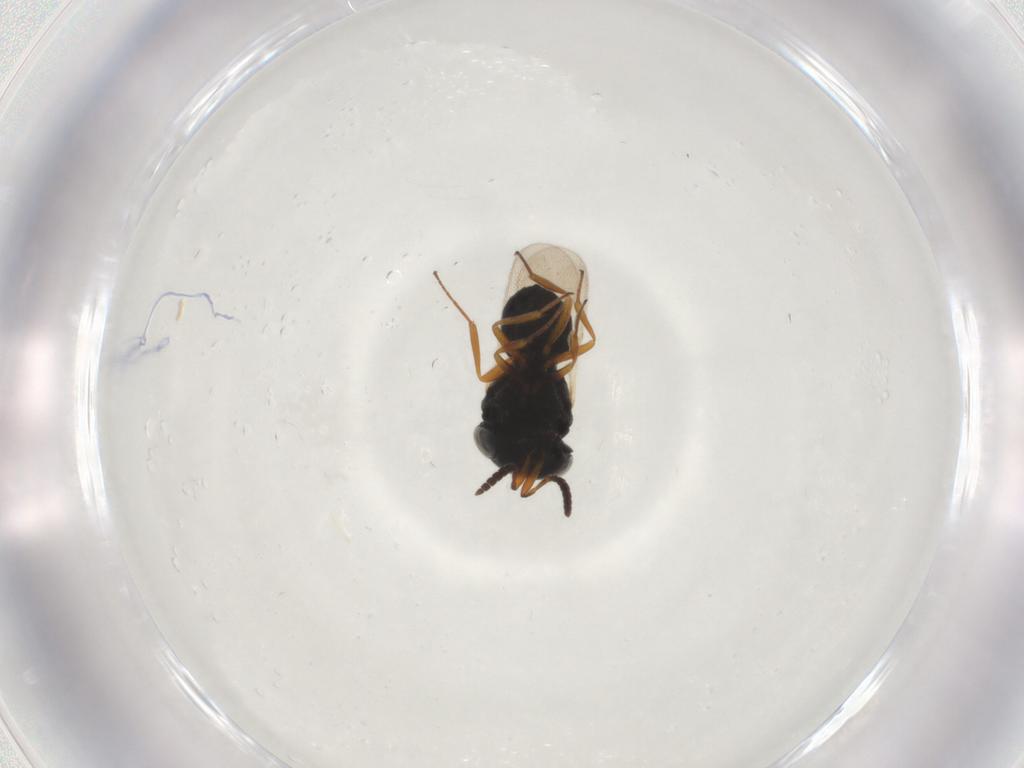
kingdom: Animalia
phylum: Arthropoda
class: Insecta
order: Hymenoptera
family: Scelionidae
